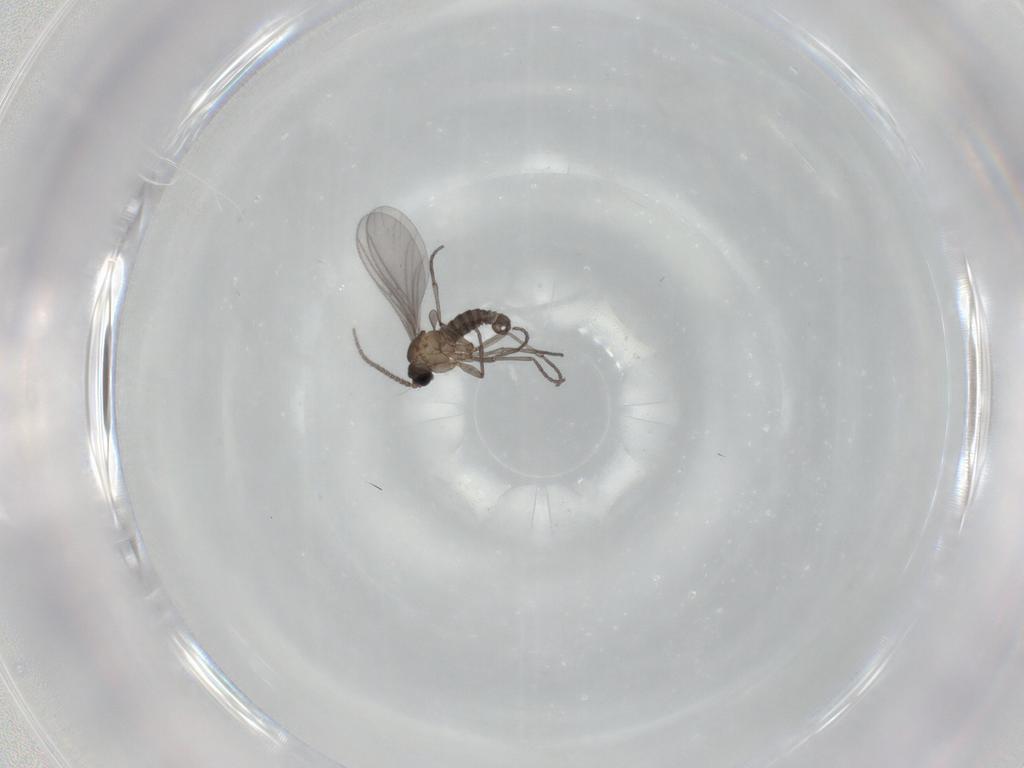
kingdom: Animalia
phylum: Arthropoda
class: Insecta
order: Diptera
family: Sciaridae
